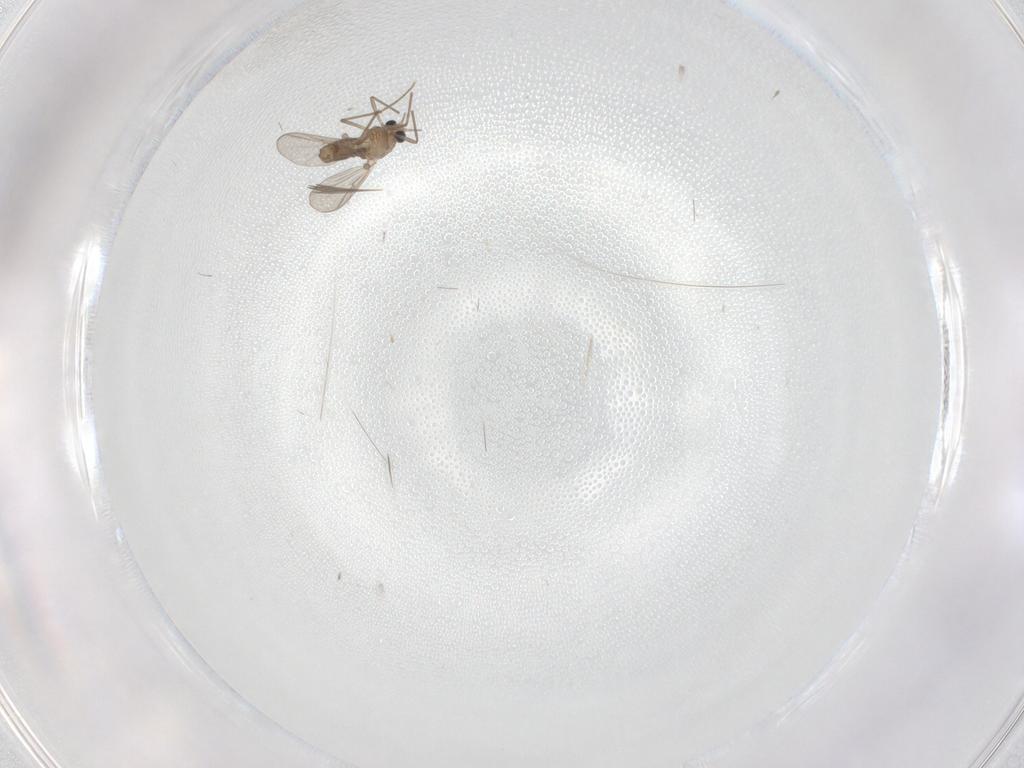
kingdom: Animalia
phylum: Arthropoda
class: Insecta
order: Diptera
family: Chironomidae
